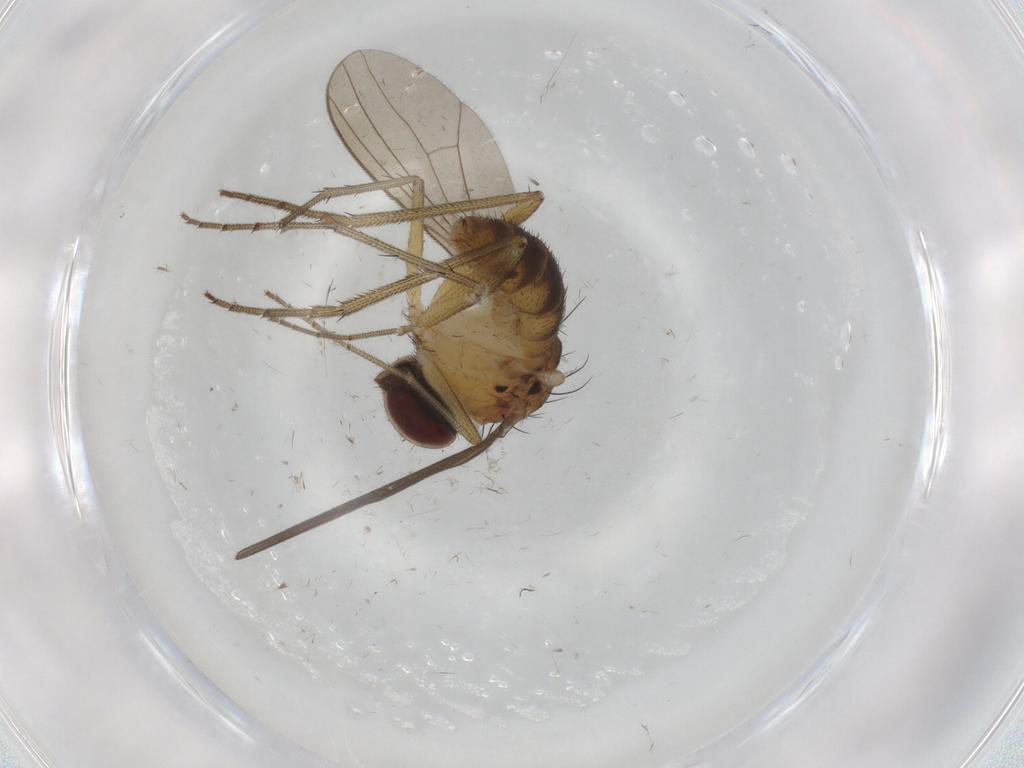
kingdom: Animalia
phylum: Arthropoda
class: Insecta
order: Diptera
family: Dolichopodidae
